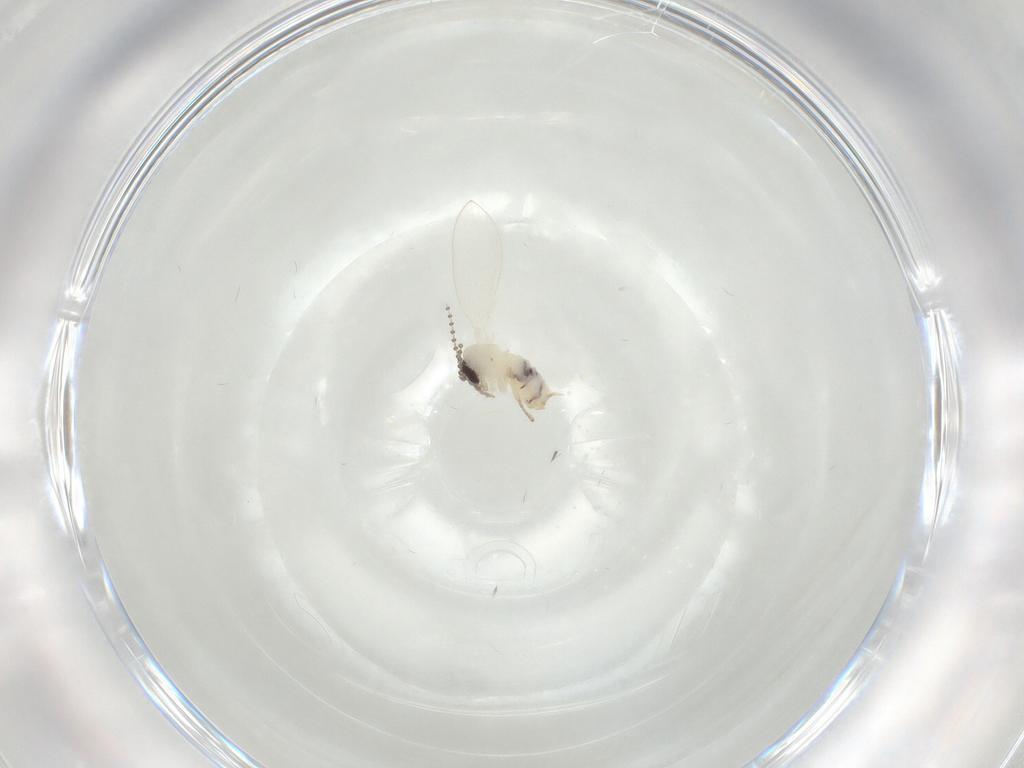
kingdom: Animalia
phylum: Arthropoda
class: Insecta
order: Diptera
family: Psychodidae
